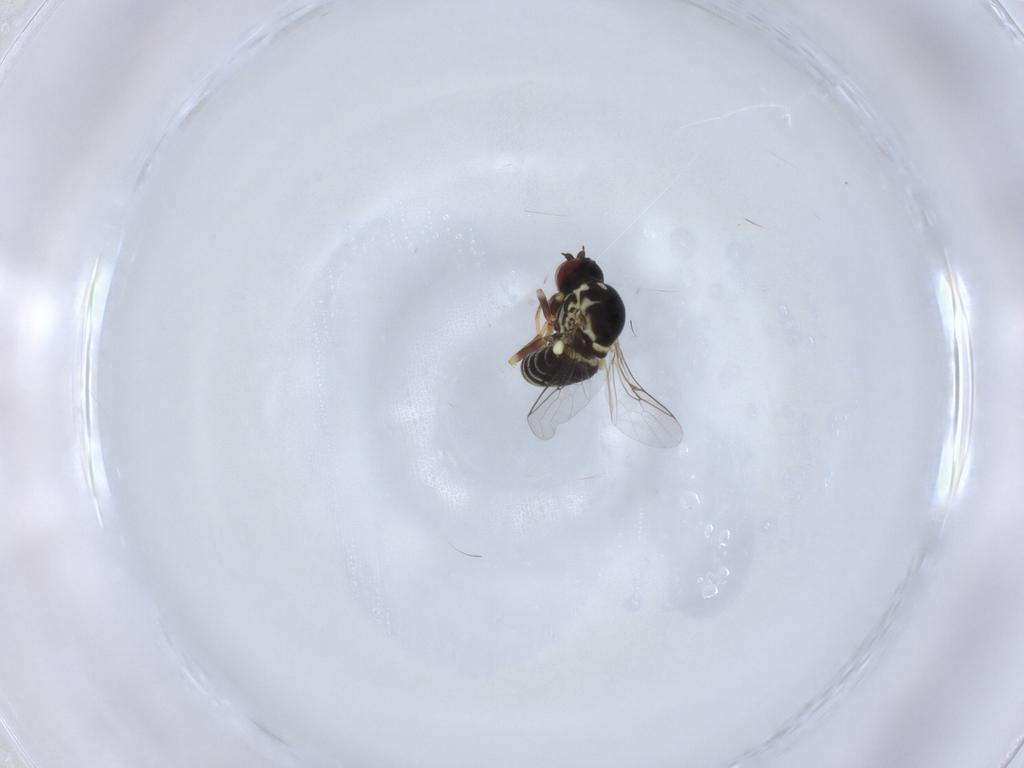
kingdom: Animalia
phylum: Arthropoda
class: Insecta
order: Diptera
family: Mythicomyiidae
